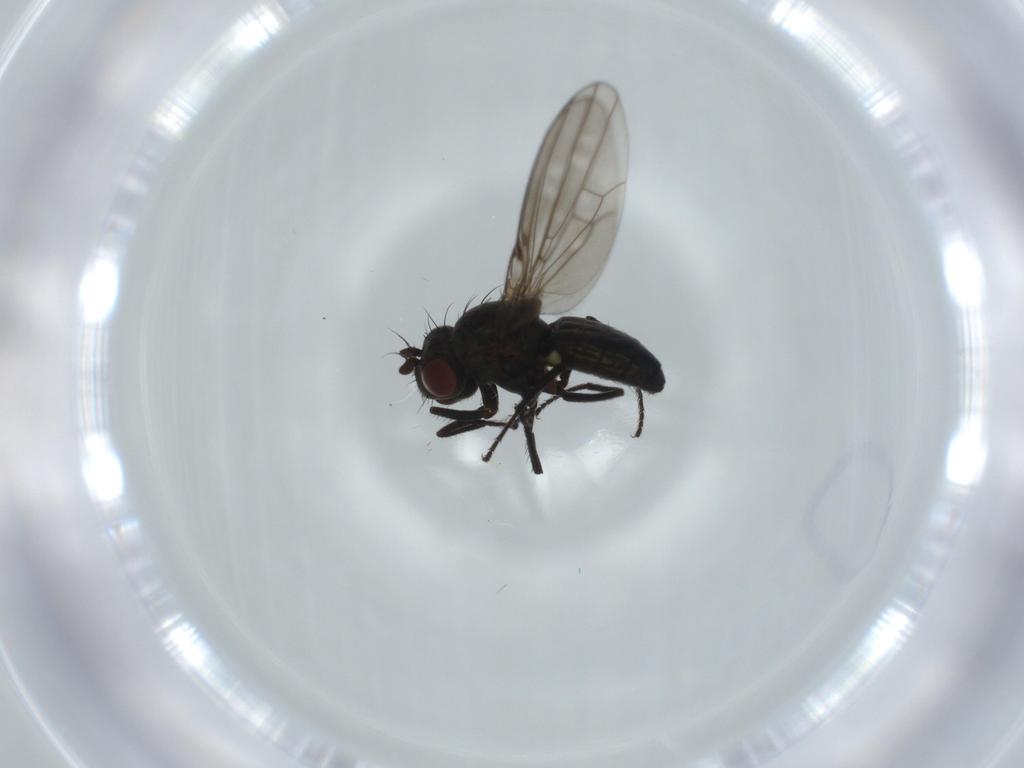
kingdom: Animalia
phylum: Arthropoda
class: Insecta
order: Diptera
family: Ephydridae
